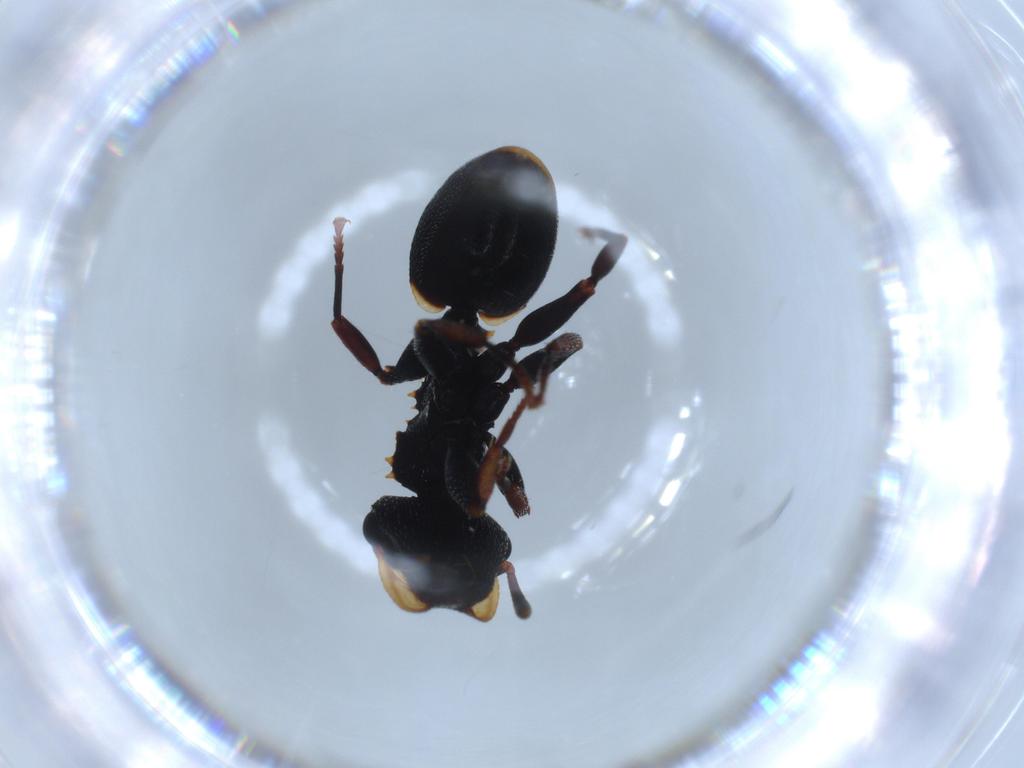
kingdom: Animalia
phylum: Arthropoda
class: Insecta
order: Hymenoptera
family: Formicidae
